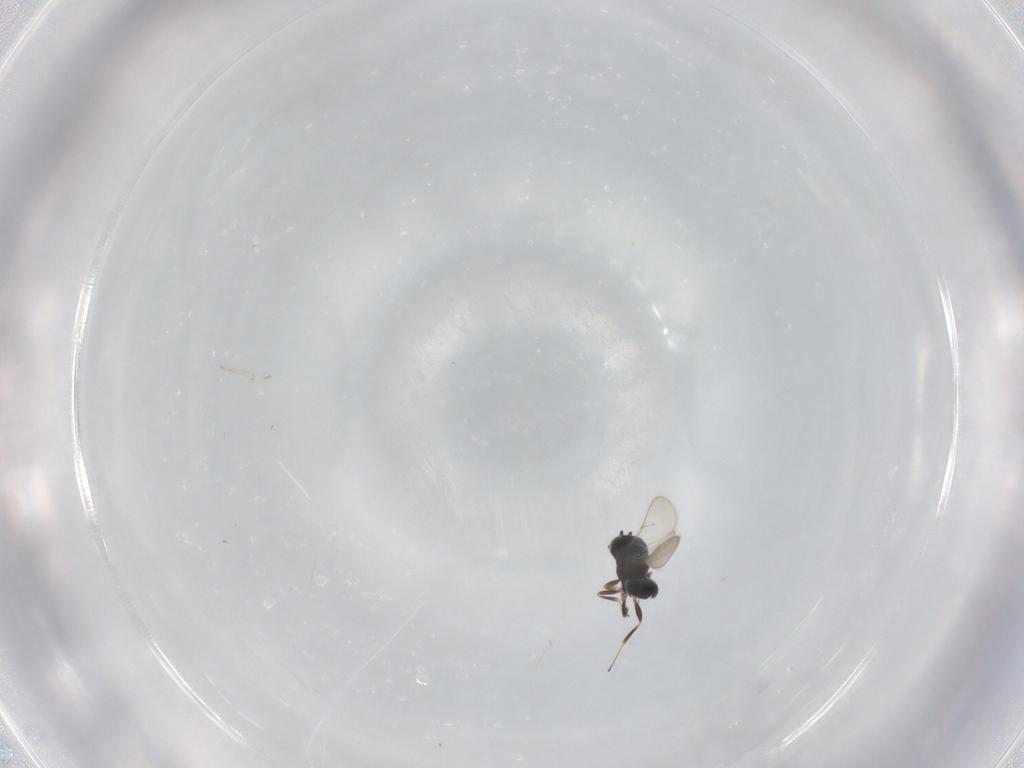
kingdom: Animalia
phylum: Arthropoda
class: Insecta
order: Hymenoptera
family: Scelionidae
